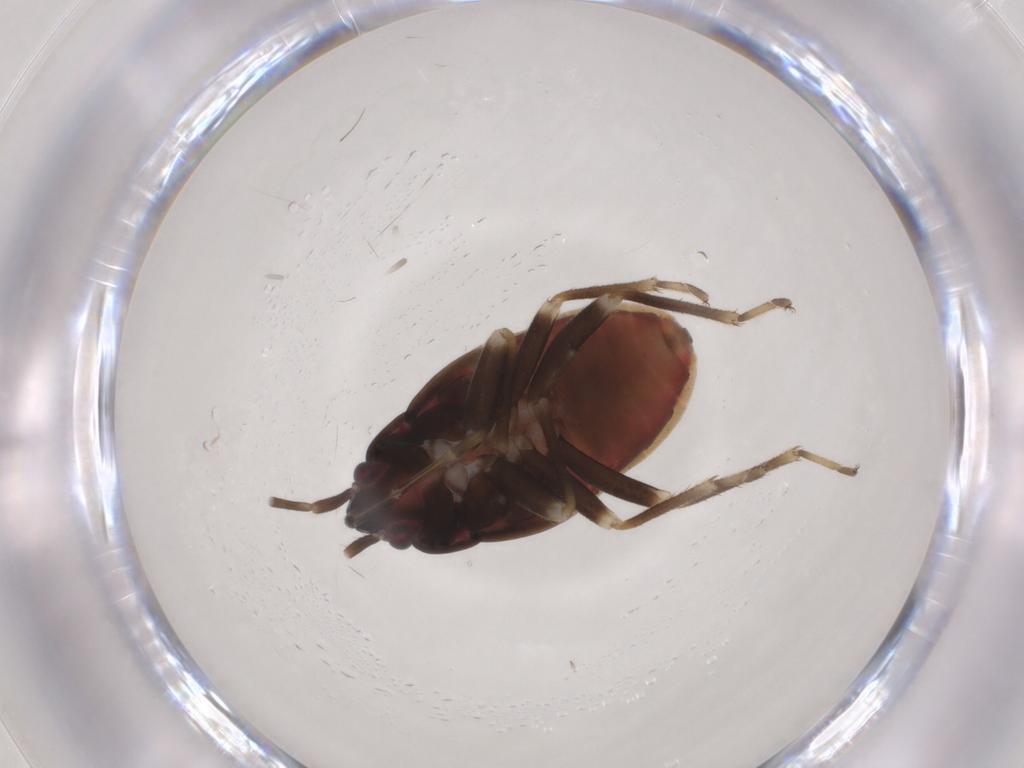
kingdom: Animalia
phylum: Arthropoda
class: Insecta
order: Hemiptera
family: Rhyparochromidae
